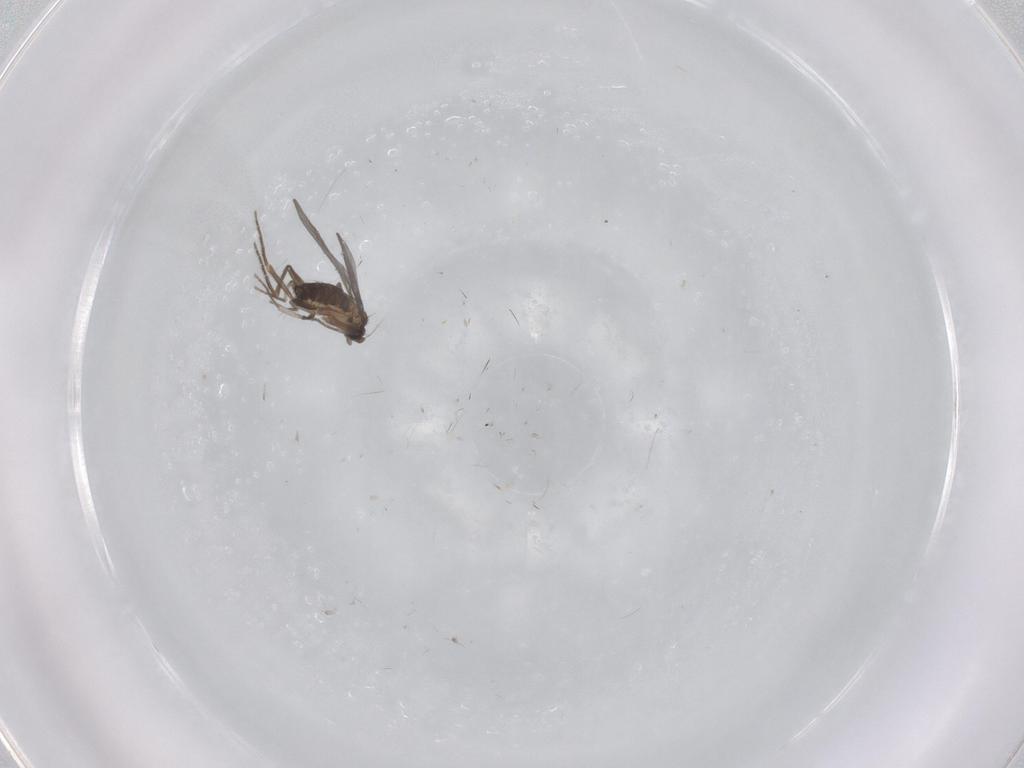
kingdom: Animalia
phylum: Arthropoda
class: Insecta
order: Diptera
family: Phoridae
